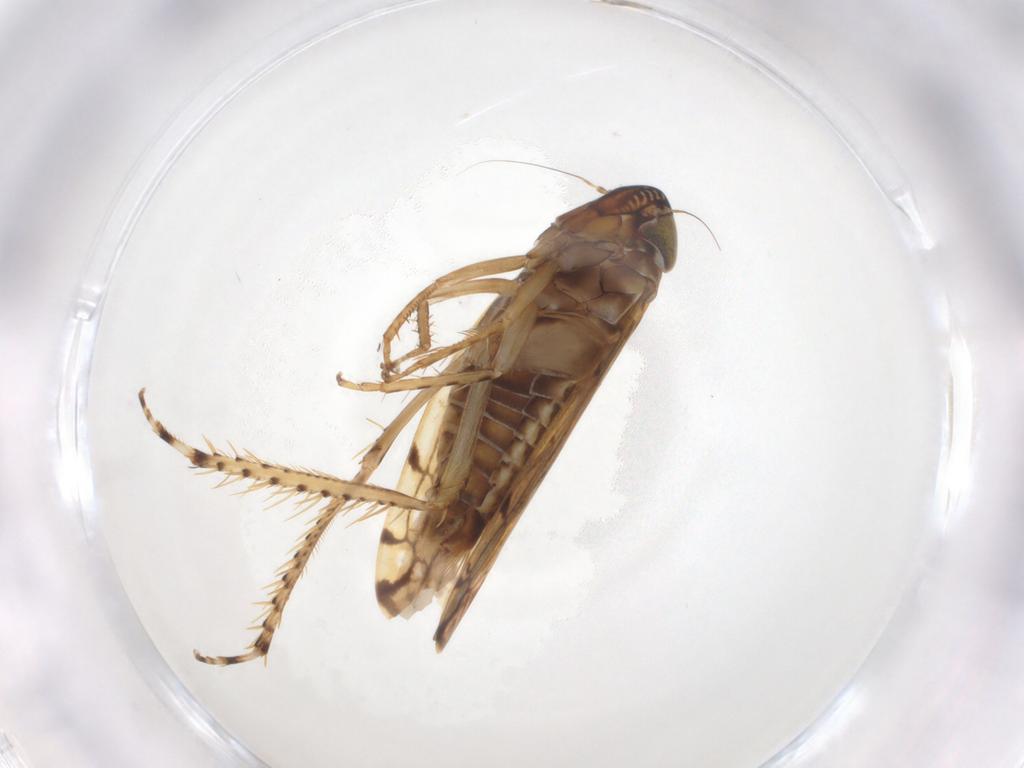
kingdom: Animalia
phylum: Arthropoda
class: Insecta
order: Hemiptera
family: Cicadellidae
